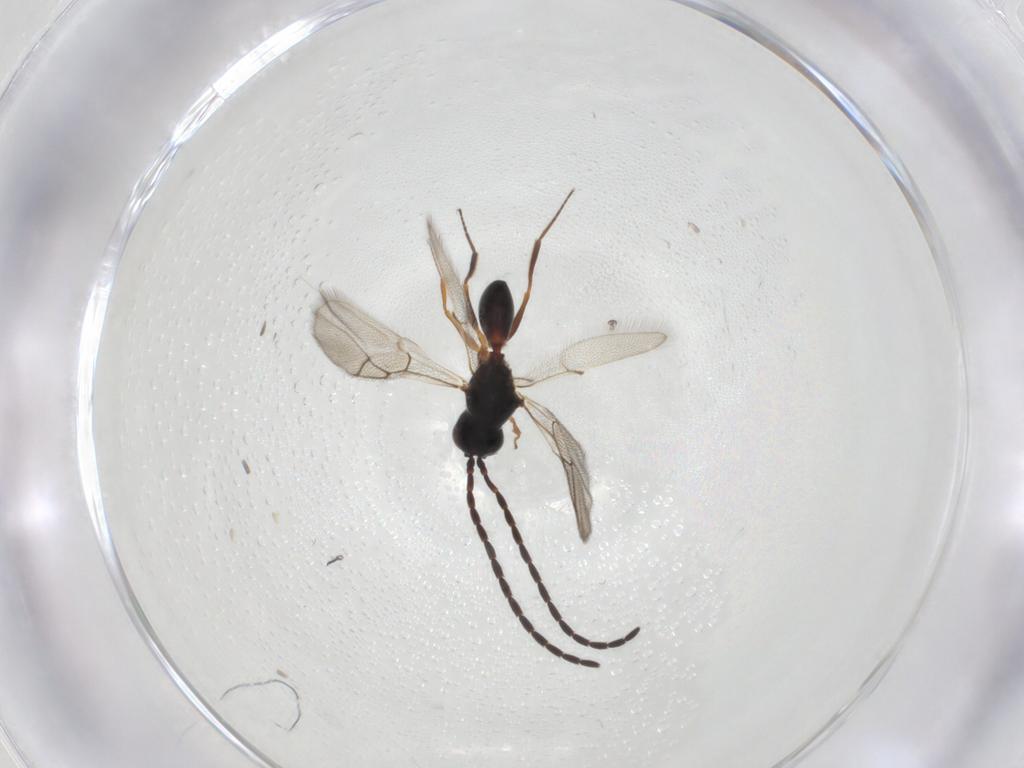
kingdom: Animalia
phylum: Arthropoda
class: Insecta
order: Hymenoptera
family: Figitidae
